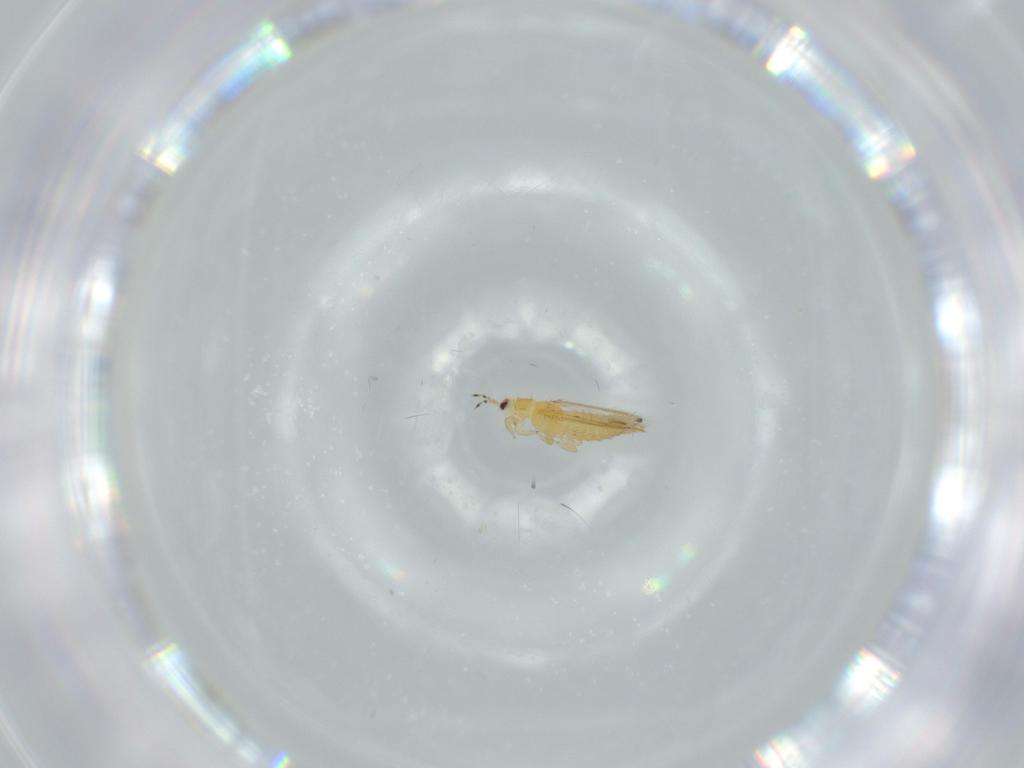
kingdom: Animalia
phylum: Arthropoda
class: Insecta
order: Thysanoptera
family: Thripidae
